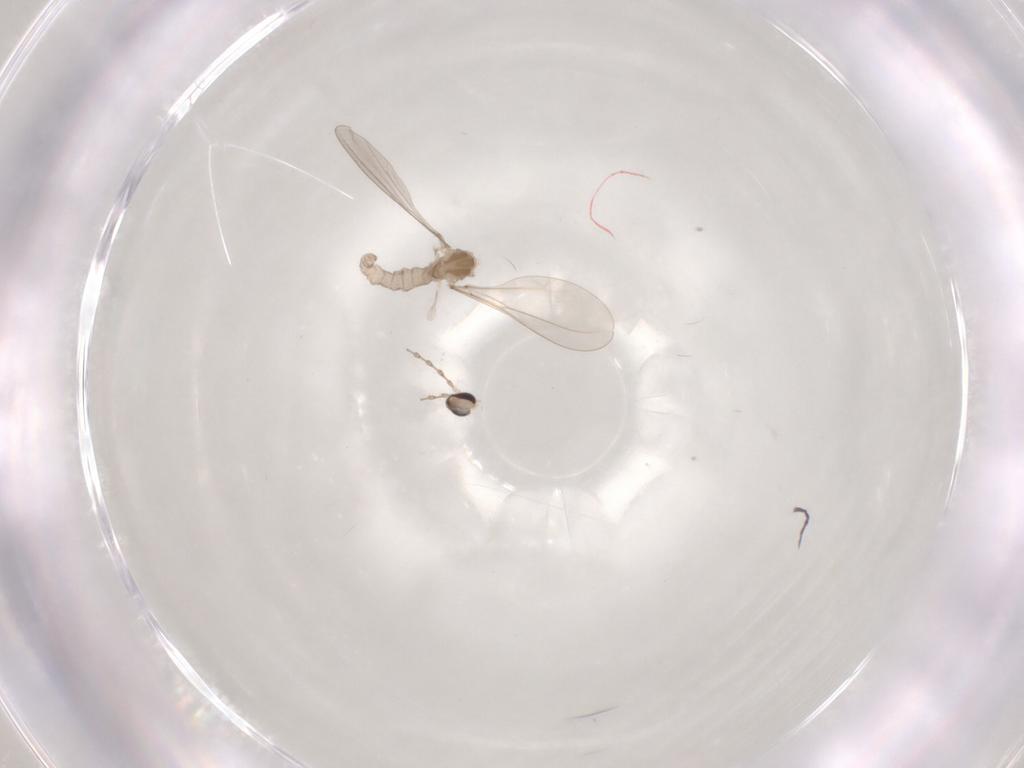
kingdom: Animalia
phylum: Arthropoda
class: Insecta
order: Diptera
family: Cecidomyiidae
